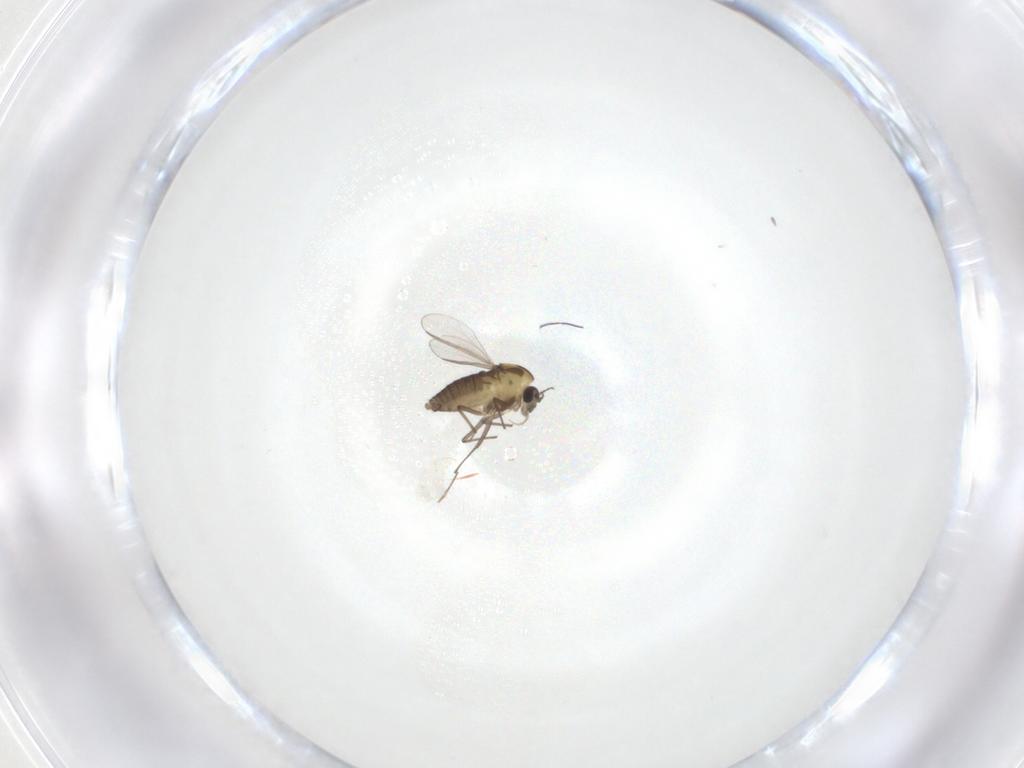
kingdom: Animalia
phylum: Arthropoda
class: Insecta
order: Diptera
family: Chironomidae
